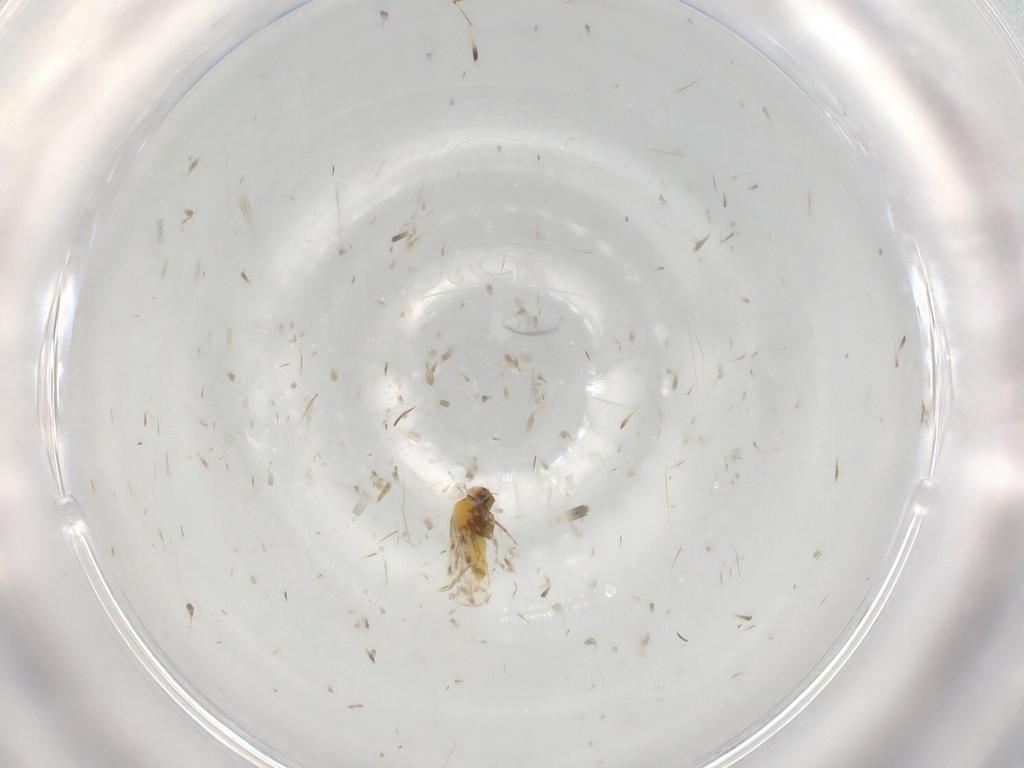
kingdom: Animalia
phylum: Arthropoda
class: Insecta
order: Hemiptera
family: Aleyrodidae
